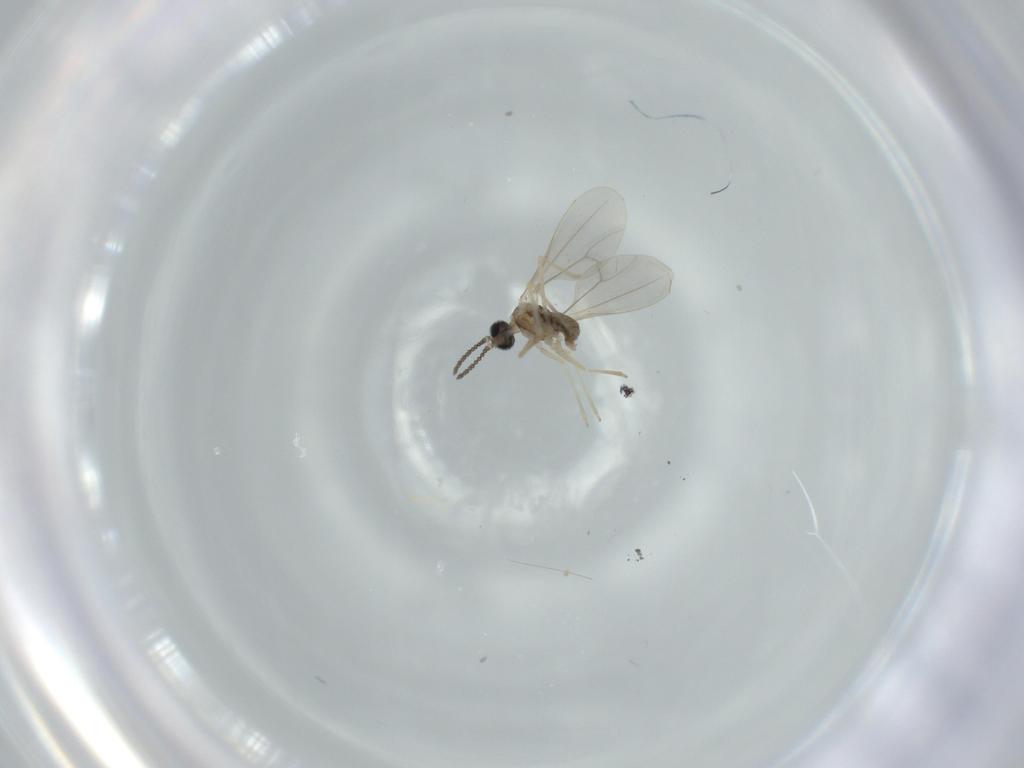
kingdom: Animalia
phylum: Arthropoda
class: Insecta
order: Diptera
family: Cecidomyiidae
